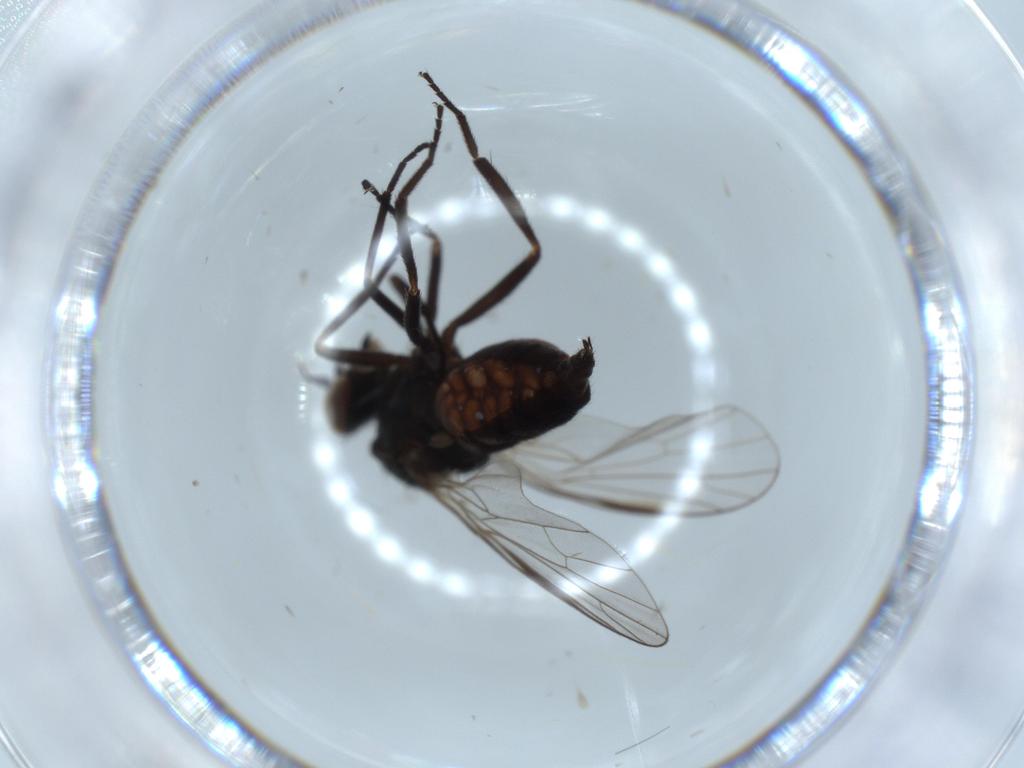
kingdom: Animalia
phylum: Arthropoda
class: Insecta
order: Diptera
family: Empididae
